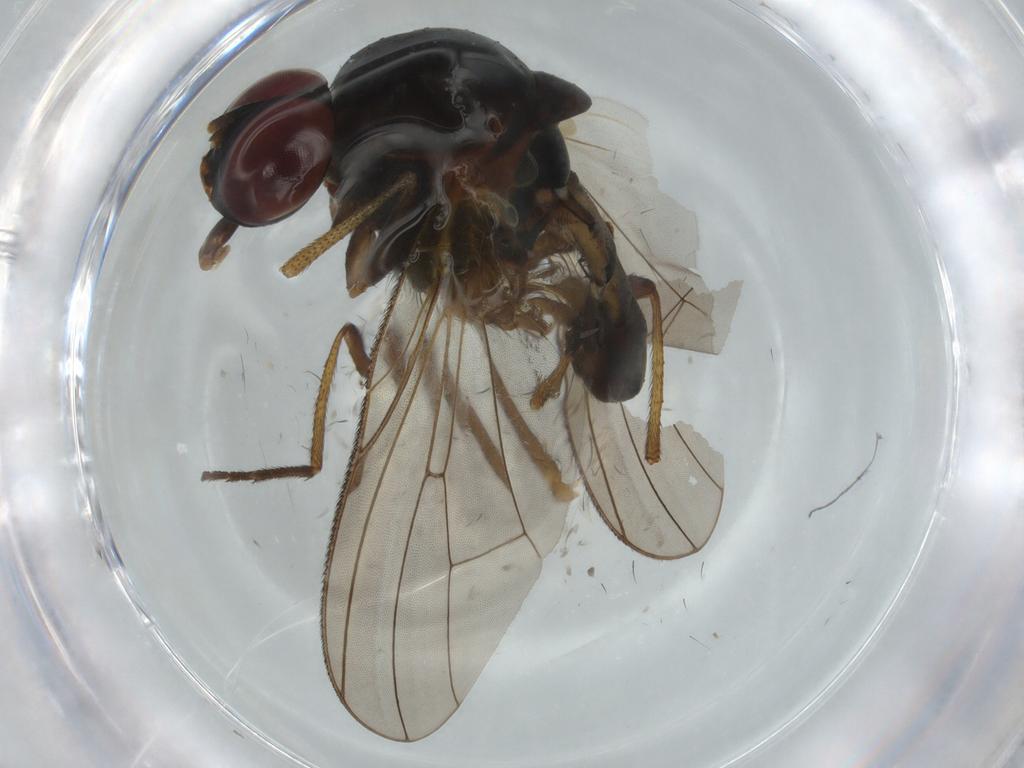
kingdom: Animalia
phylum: Arthropoda
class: Insecta
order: Diptera
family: Anthomyiidae
